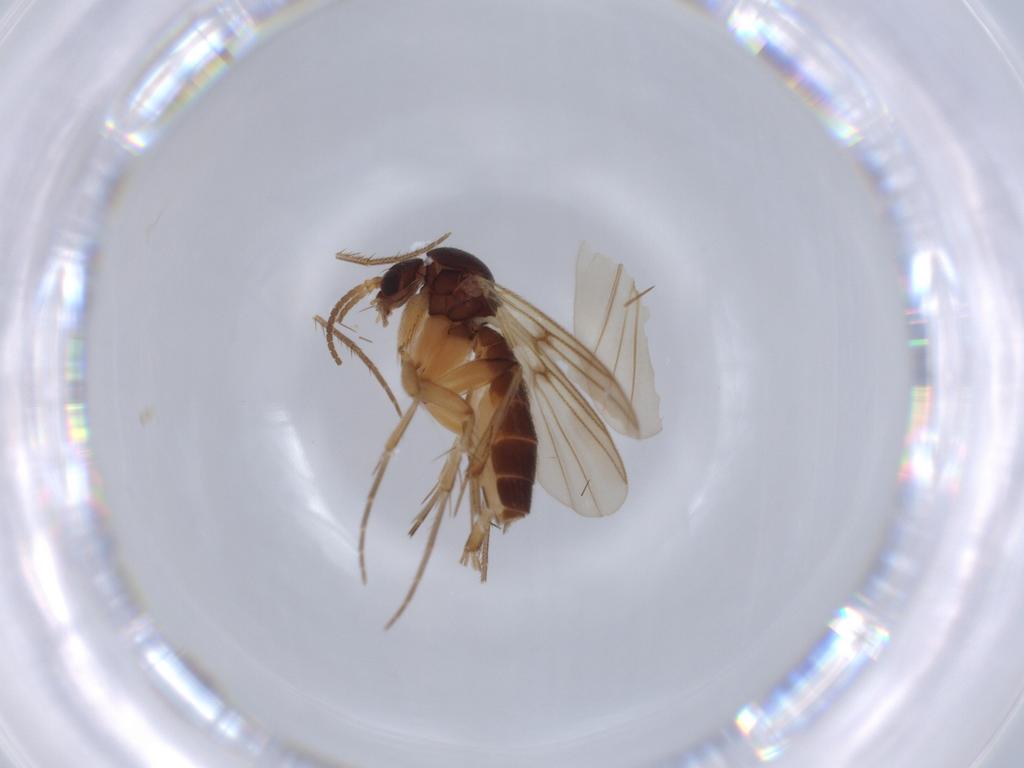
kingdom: Animalia
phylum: Arthropoda
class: Insecta
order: Diptera
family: Mycetophilidae
